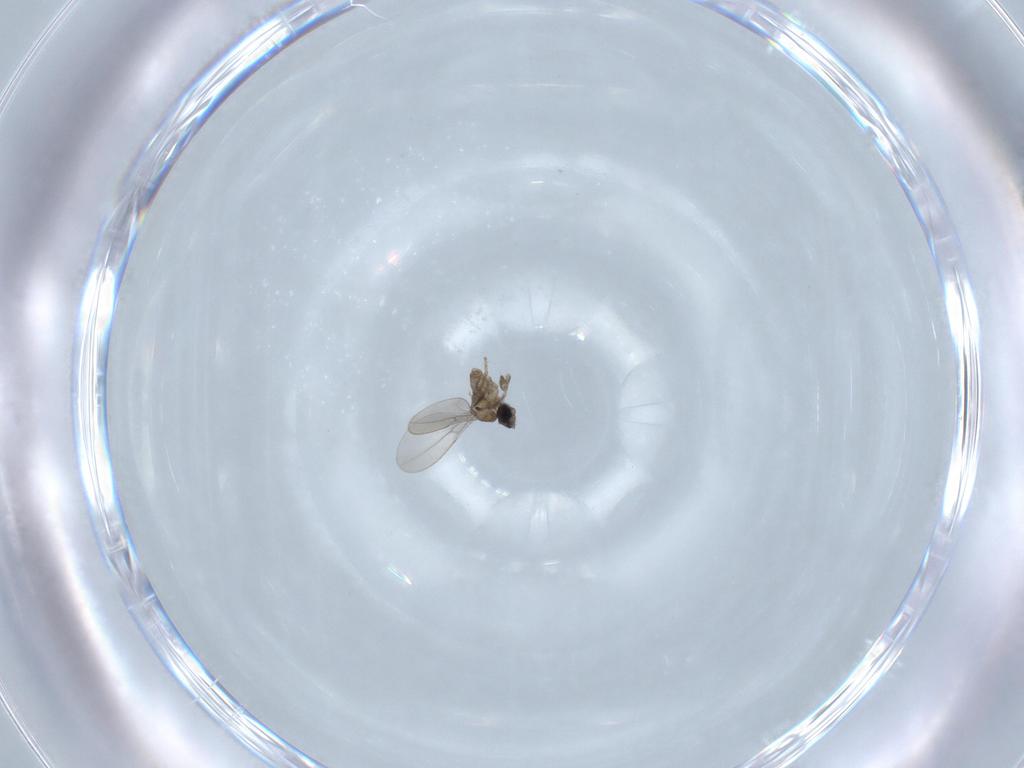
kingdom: Animalia
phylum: Arthropoda
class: Insecta
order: Diptera
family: Cecidomyiidae
